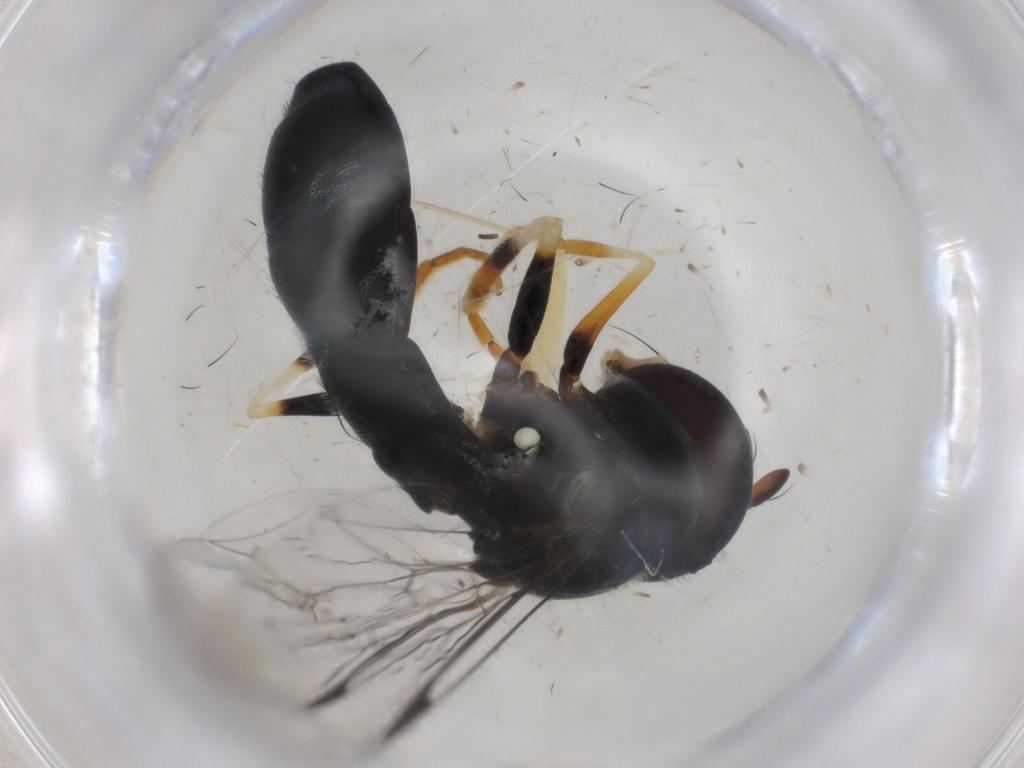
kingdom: Animalia
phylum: Arthropoda
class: Insecta
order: Diptera
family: Syrphidae
